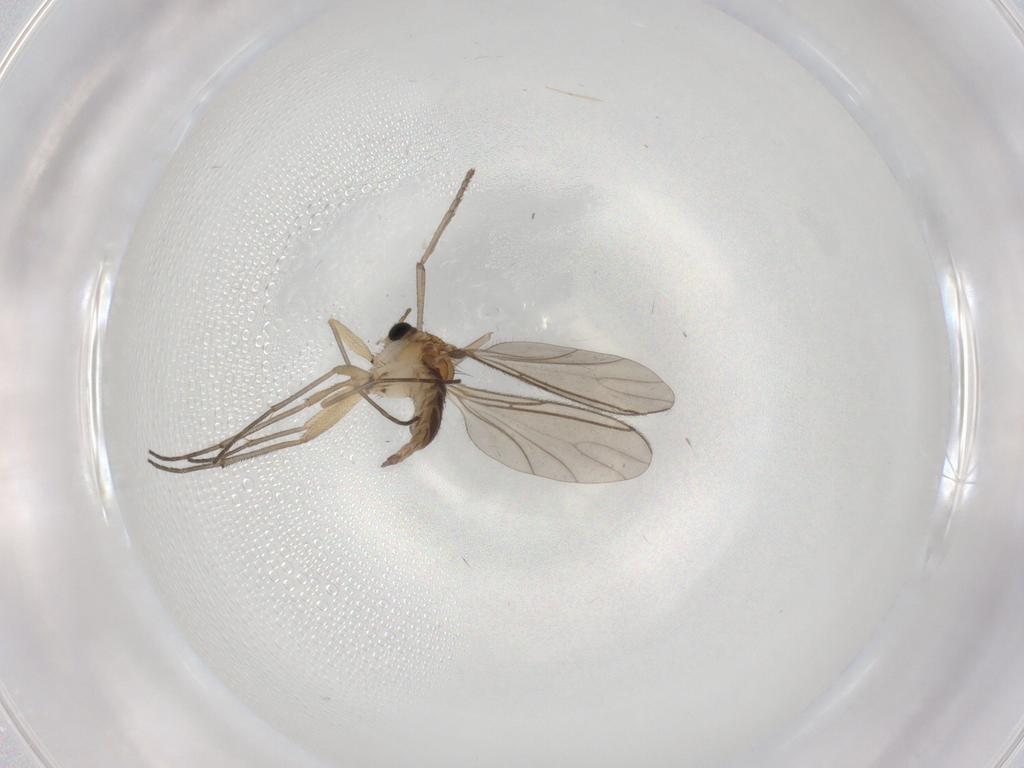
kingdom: Animalia
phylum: Arthropoda
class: Insecta
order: Diptera
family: Psychodidae
